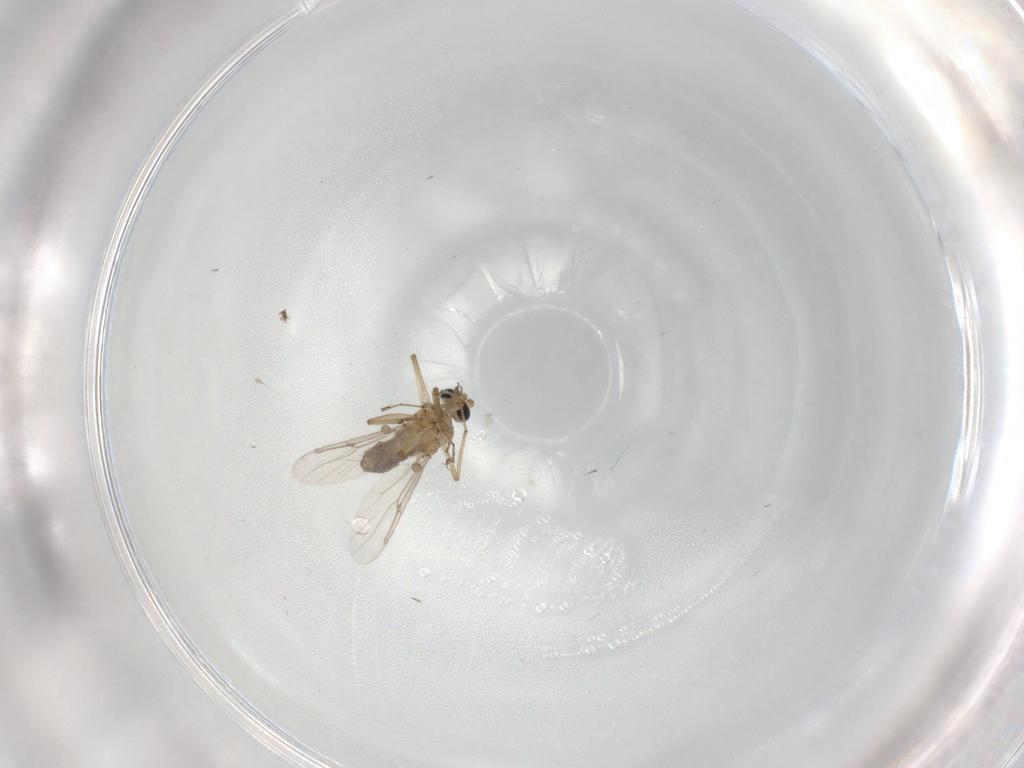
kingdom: Animalia
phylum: Arthropoda
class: Insecta
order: Diptera
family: Ceratopogonidae
